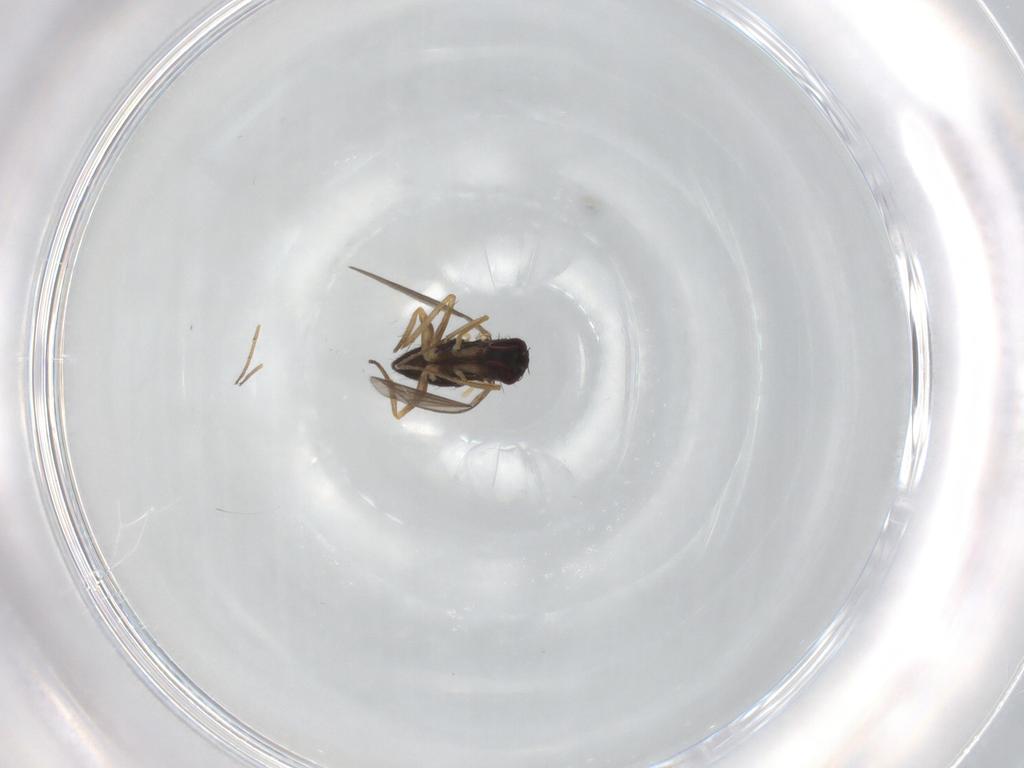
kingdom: Animalia
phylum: Arthropoda
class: Insecta
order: Diptera
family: Dolichopodidae
